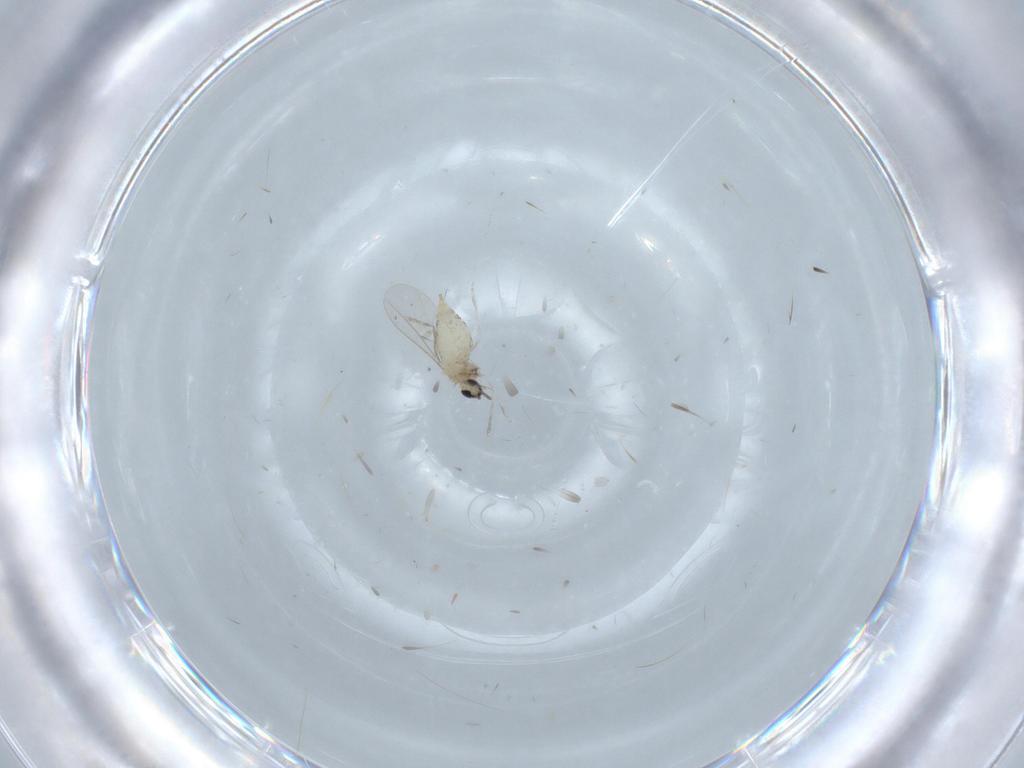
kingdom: Animalia
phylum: Arthropoda
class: Insecta
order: Diptera
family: Cecidomyiidae
